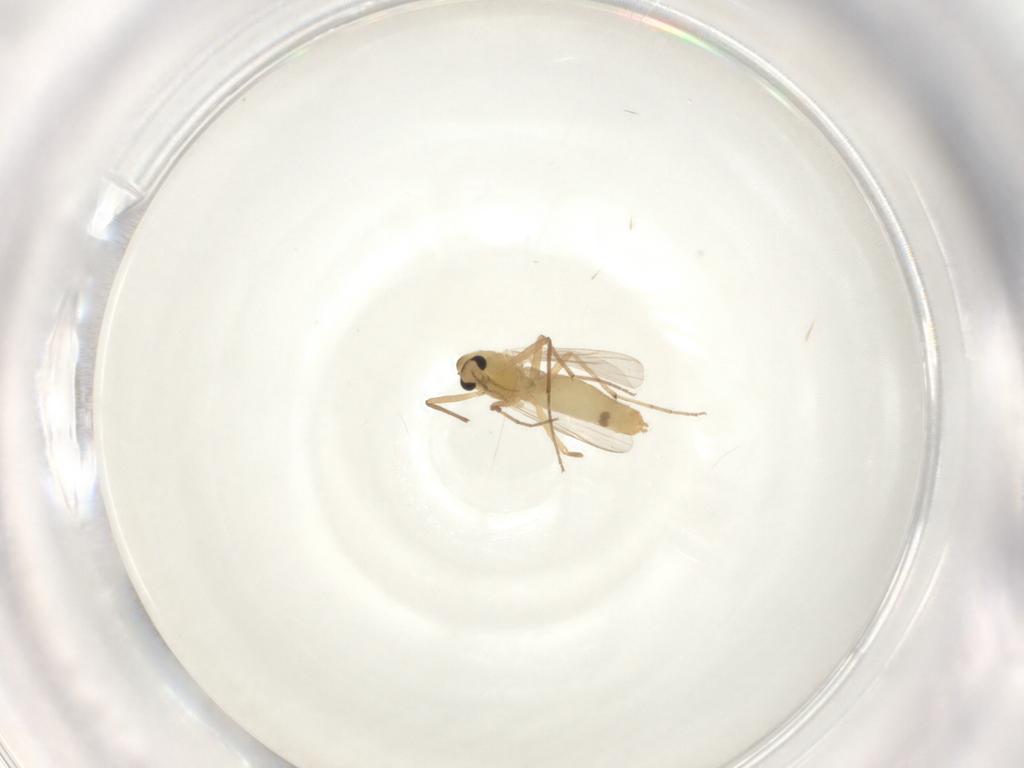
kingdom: Animalia
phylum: Arthropoda
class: Insecta
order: Diptera
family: Chironomidae
